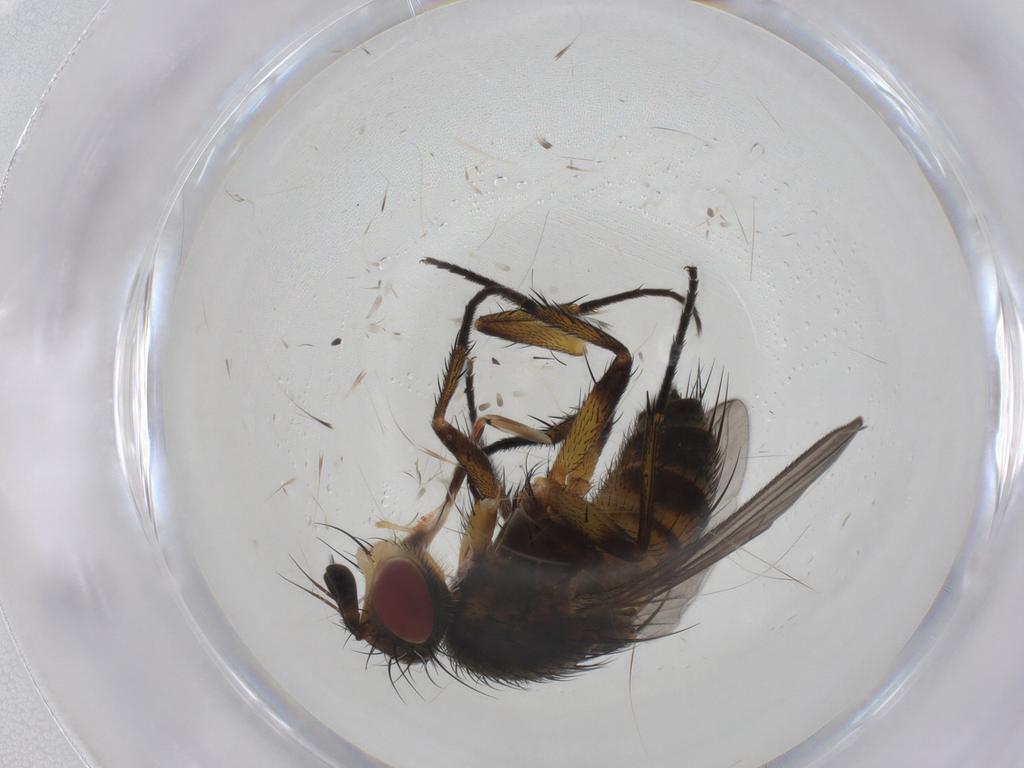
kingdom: Animalia
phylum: Arthropoda
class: Insecta
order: Diptera
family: Tachinidae
